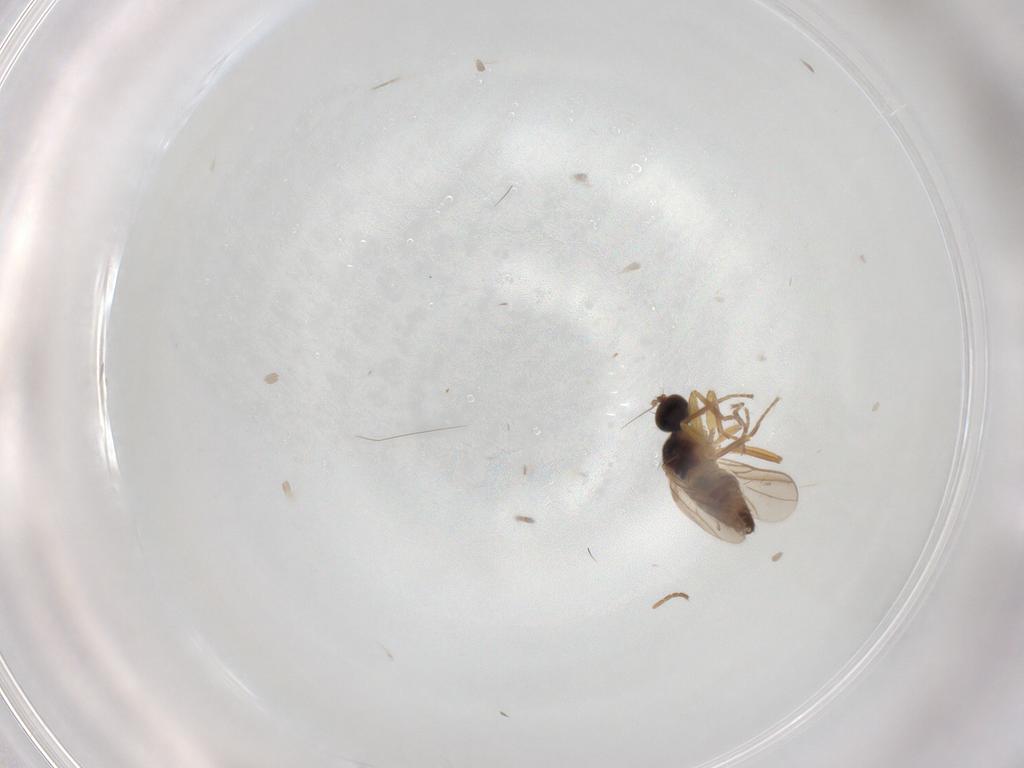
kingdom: Animalia
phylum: Arthropoda
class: Insecta
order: Diptera
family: Hybotidae
